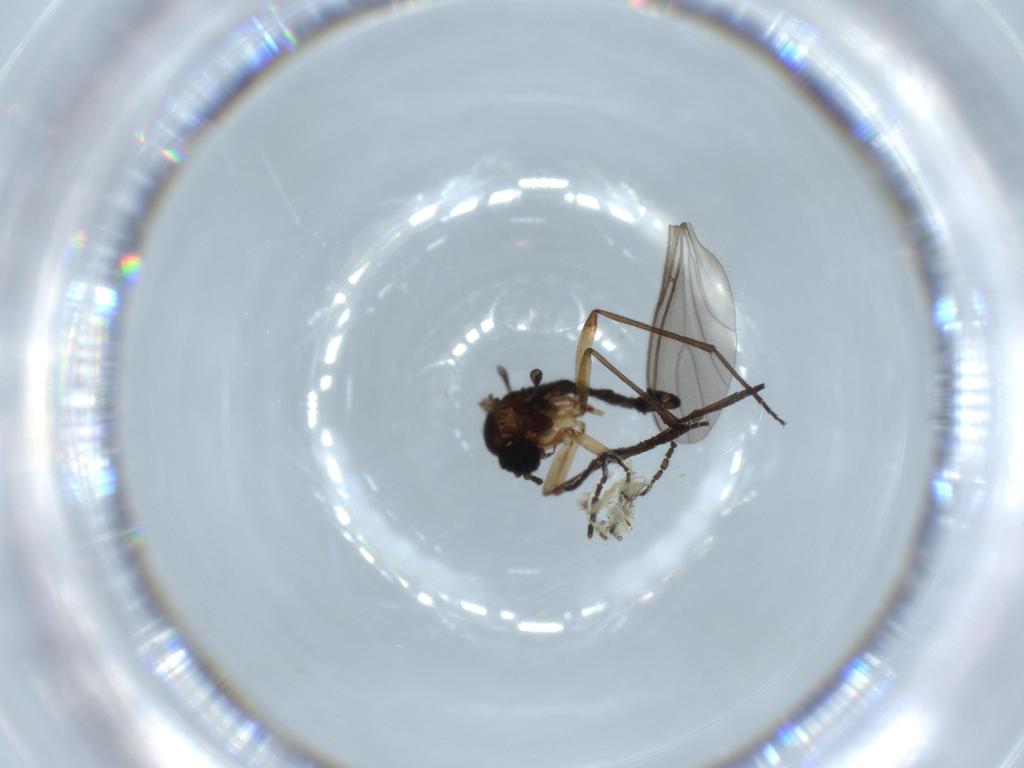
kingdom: Animalia
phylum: Arthropoda
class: Insecta
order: Diptera
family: Sciaridae
